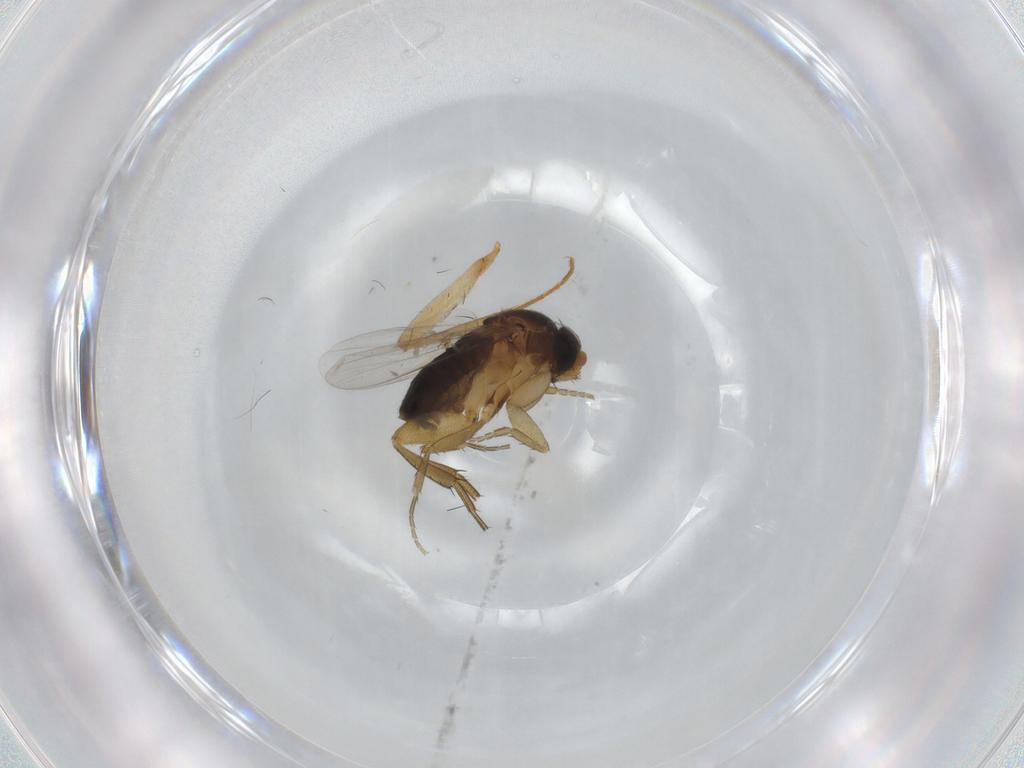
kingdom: Animalia
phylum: Arthropoda
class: Insecta
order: Diptera
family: Phoridae
